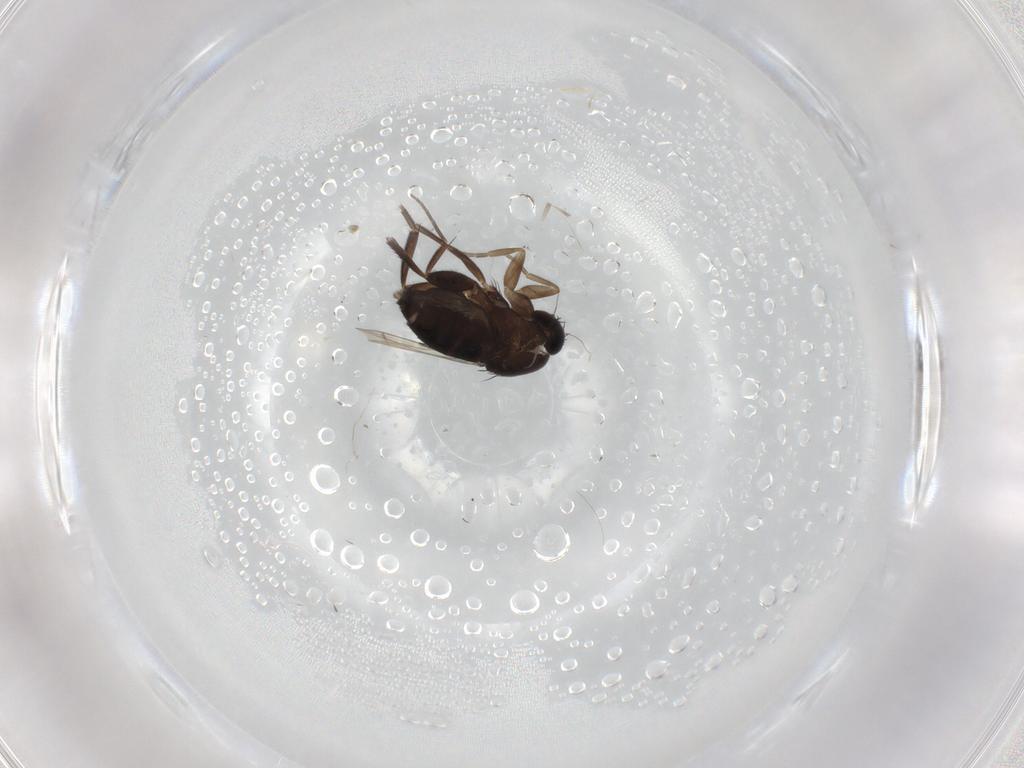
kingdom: Animalia
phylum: Arthropoda
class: Insecta
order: Diptera
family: Phoridae
